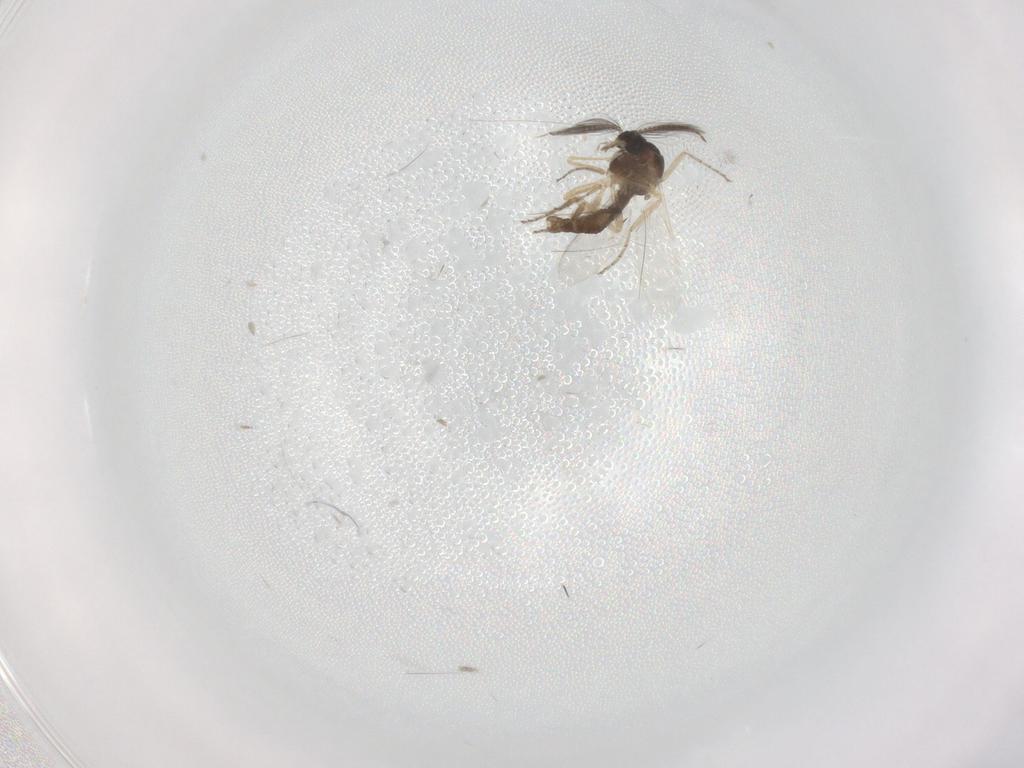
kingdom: Animalia
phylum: Arthropoda
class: Insecta
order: Diptera
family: Ceratopogonidae
